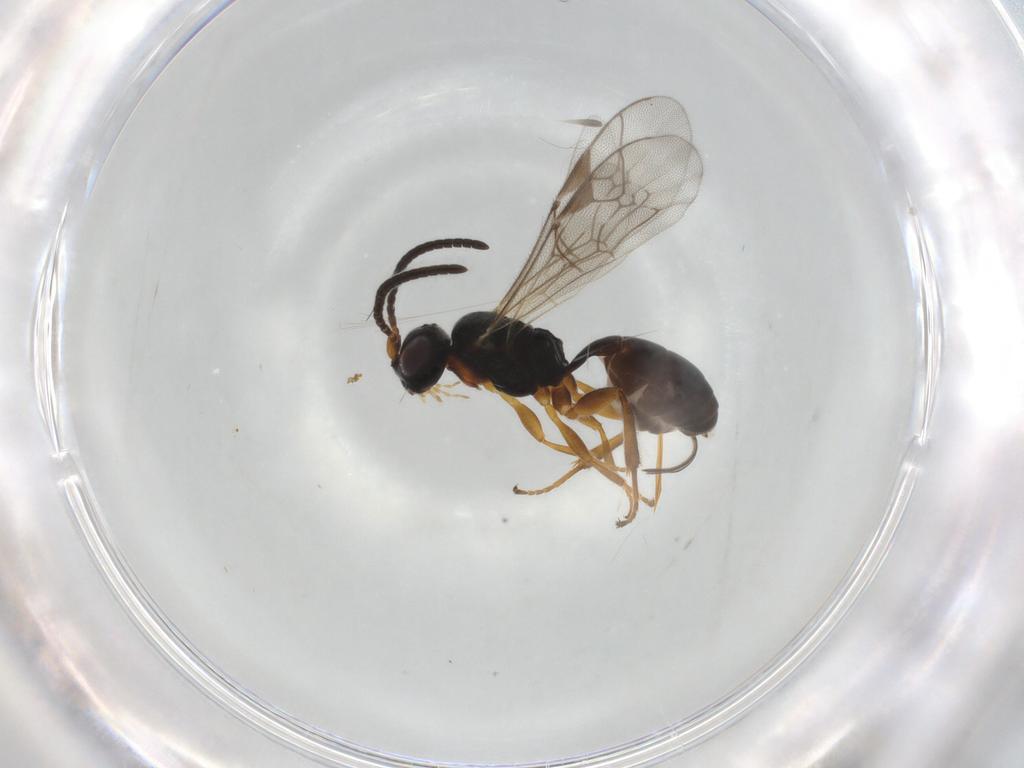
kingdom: Animalia
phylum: Arthropoda
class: Insecta
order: Hymenoptera
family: Ichneumonidae
